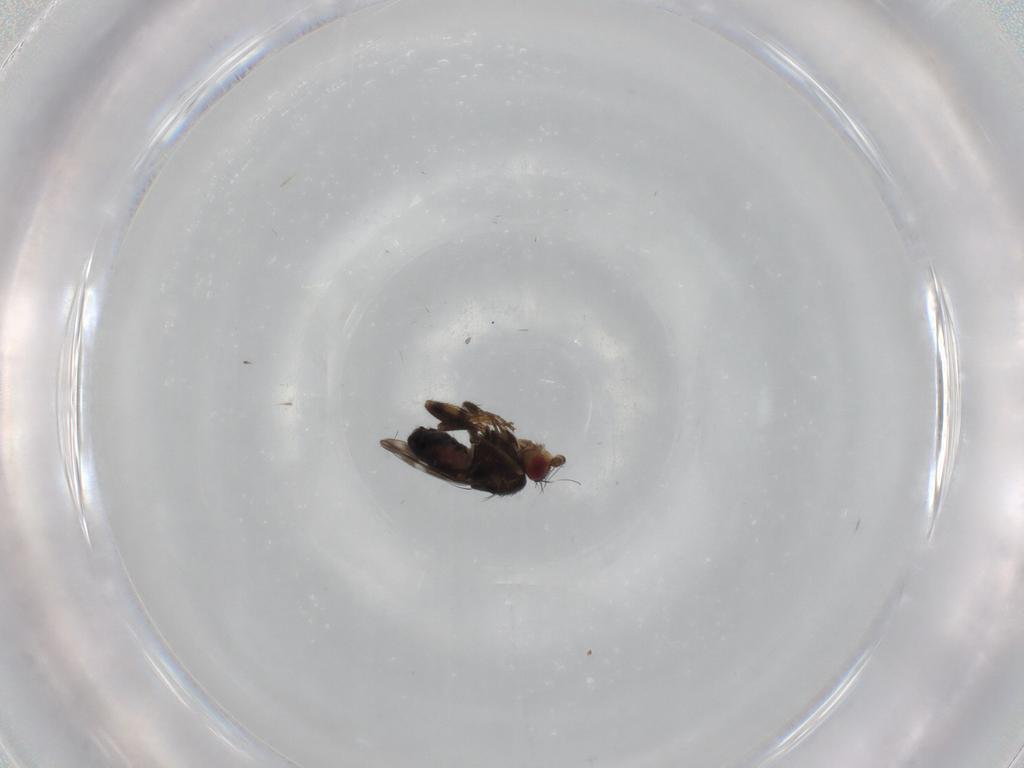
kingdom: Animalia
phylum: Arthropoda
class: Insecta
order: Diptera
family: Sphaeroceridae
